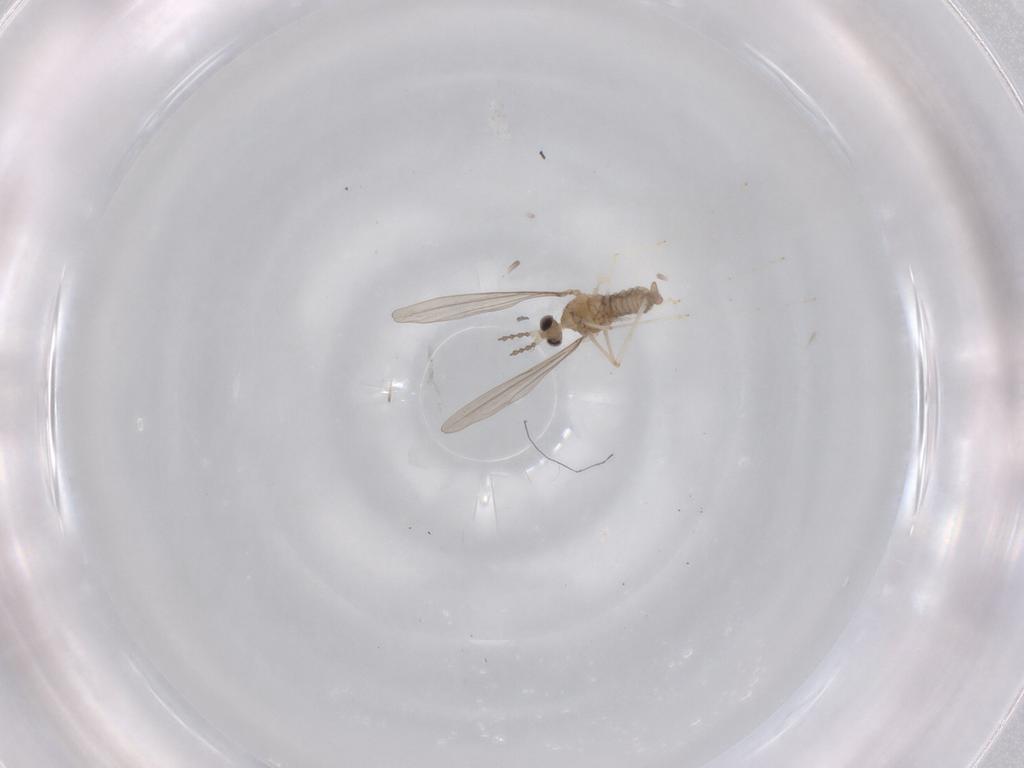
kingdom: Animalia
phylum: Arthropoda
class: Insecta
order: Diptera
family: Cecidomyiidae
